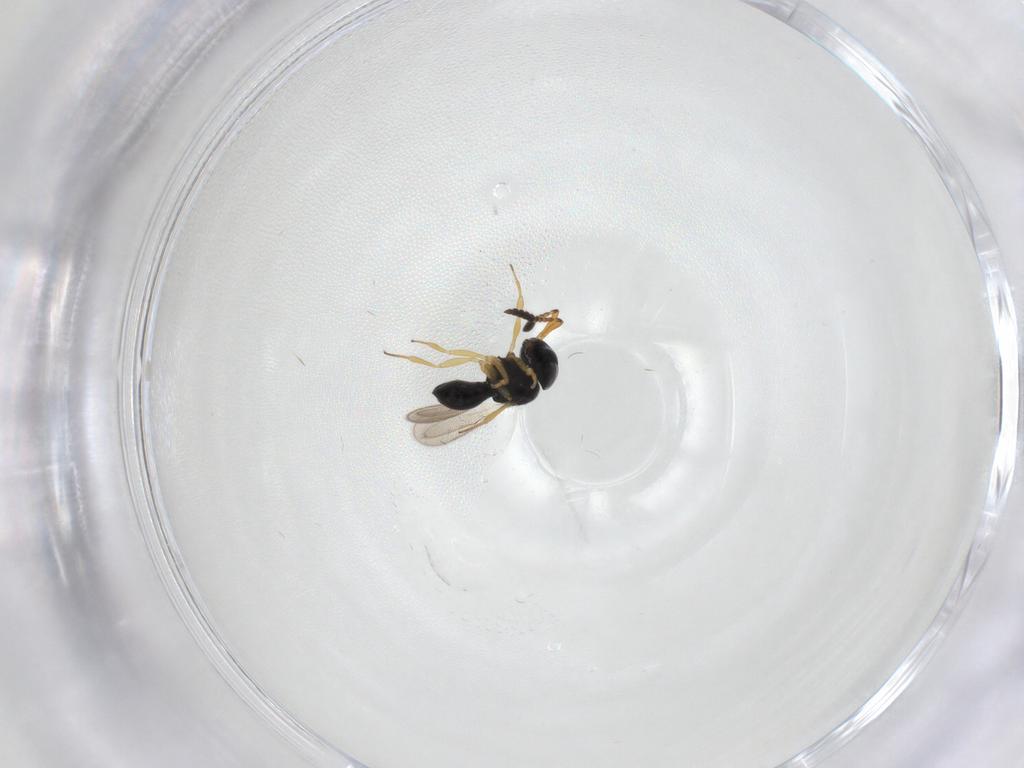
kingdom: Animalia
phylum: Arthropoda
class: Insecta
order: Hymenoptera
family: Scelionidae
